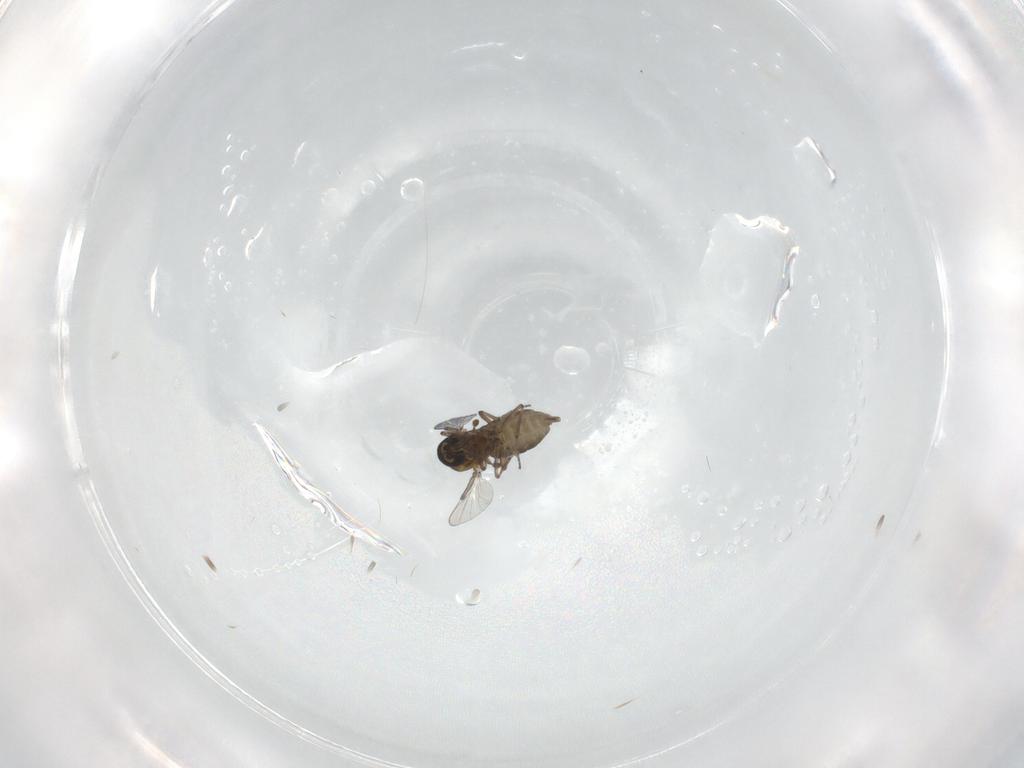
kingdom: Animalia
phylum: Arthropoda
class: Insecta
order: Diptera
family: Ceratopogonidae
